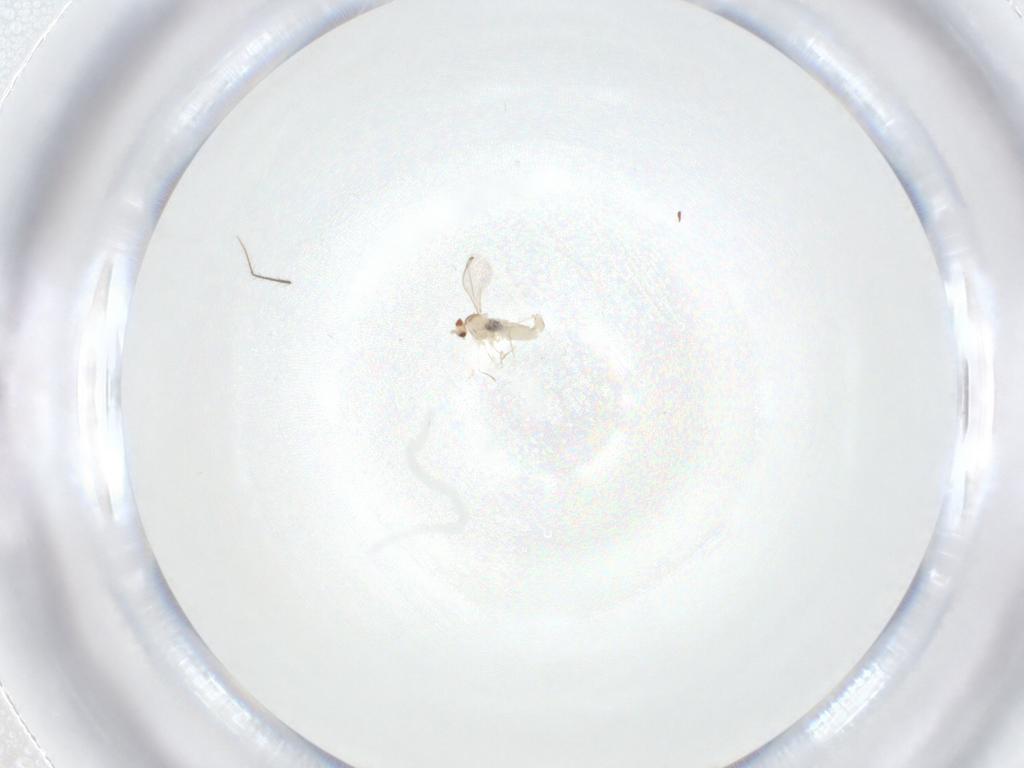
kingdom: Animalia
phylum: Arthropoda
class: Insecta
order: Diptera
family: Cecidomyiidae
